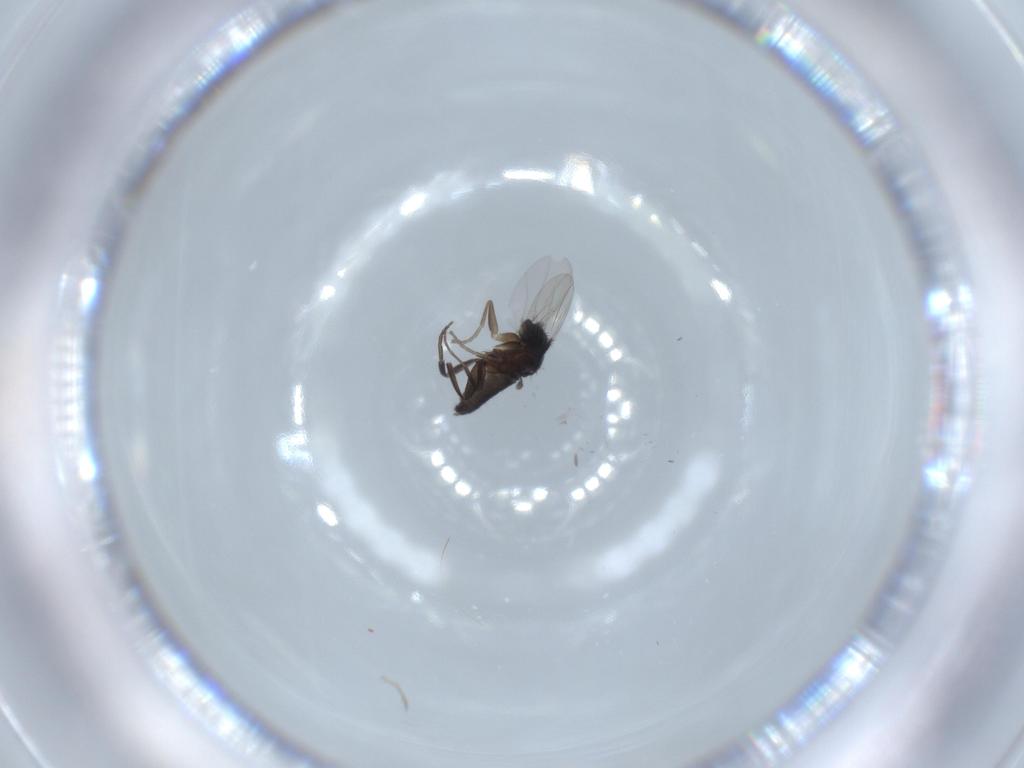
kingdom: Animalia
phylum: Arthropoda
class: Insecta
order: Diptera
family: Phoridae
